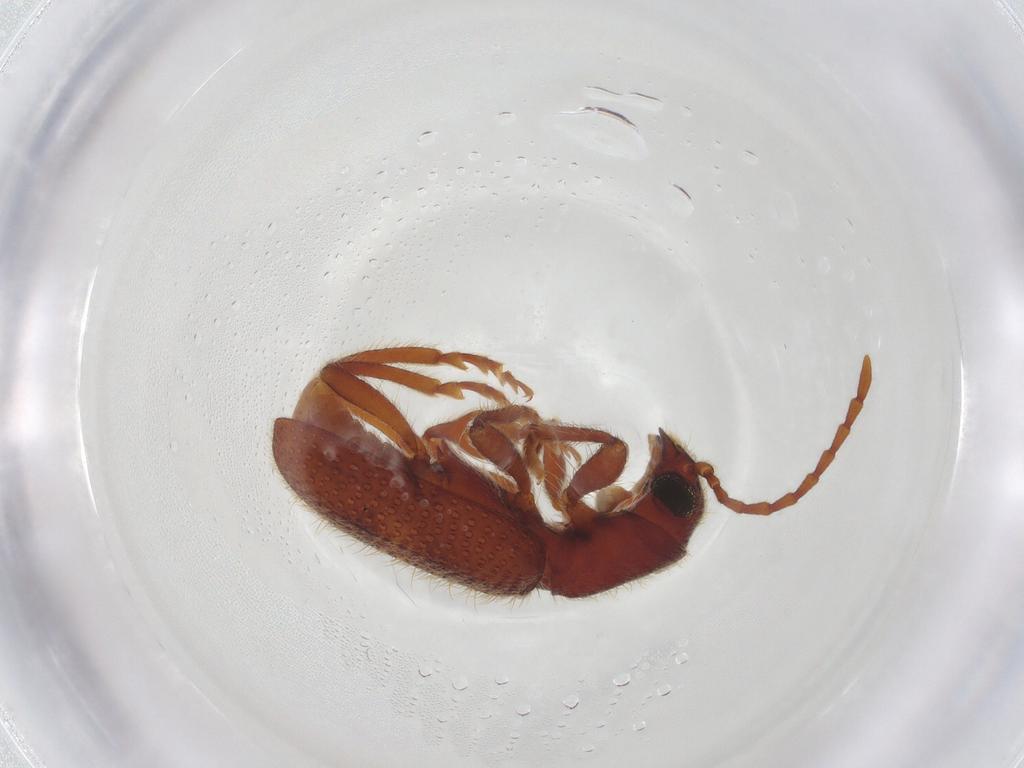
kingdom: Animalia
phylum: Arthropoda
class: Insecta
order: Coleoptera
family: Cleridae
